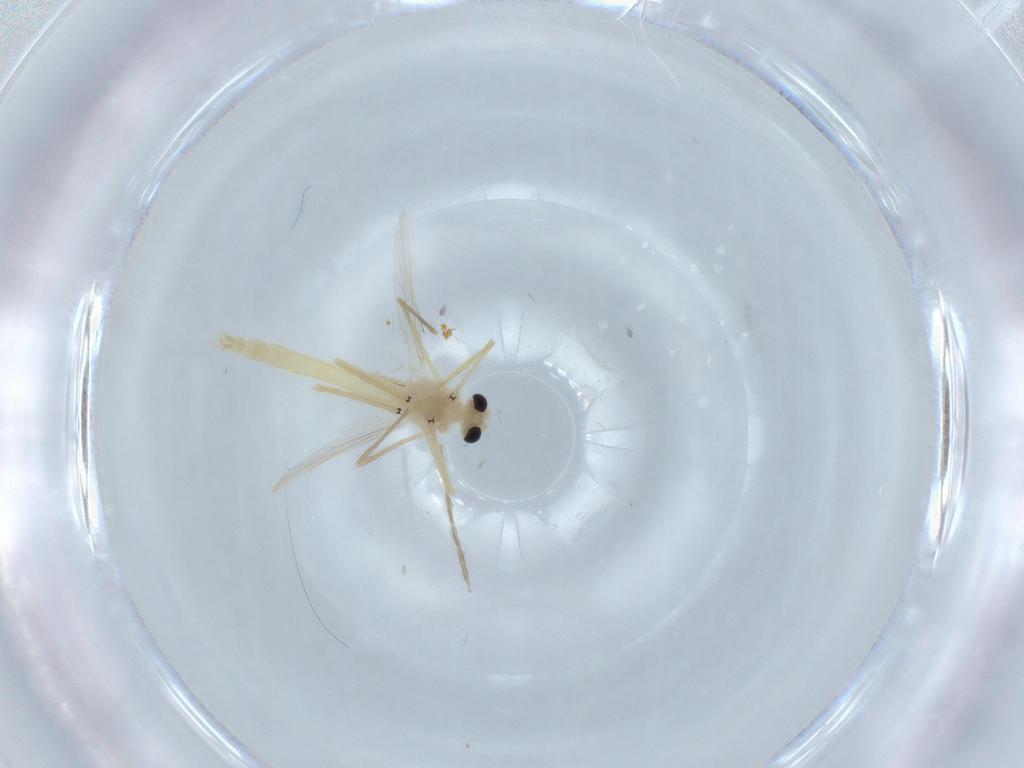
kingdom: Animalia
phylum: Arthropoda
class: Insecta
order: Diptera
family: Chironomidae
